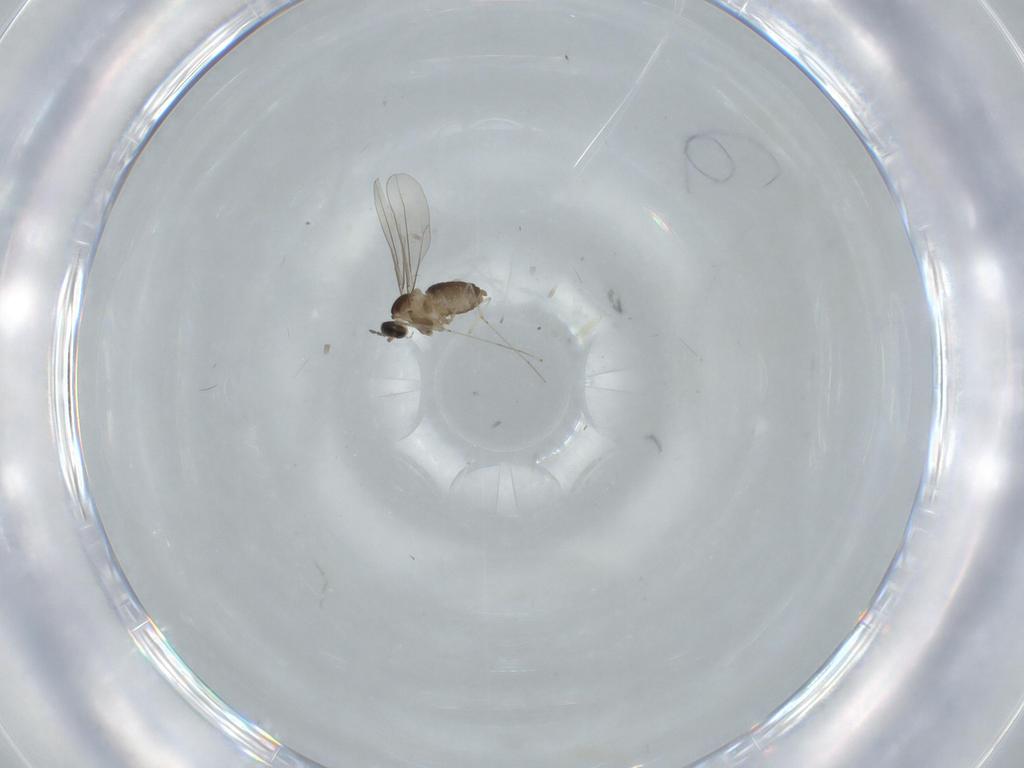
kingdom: Animalia
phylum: Arthropoda
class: Insecta
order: Diptera
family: Cecidomyiidae
